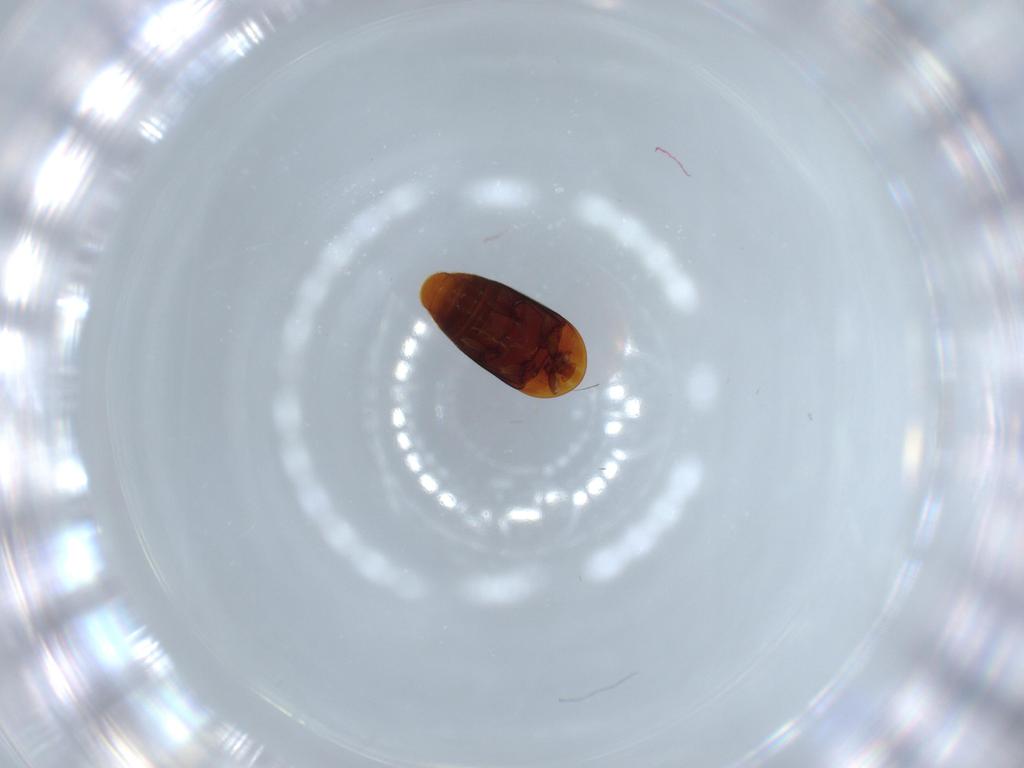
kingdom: Animalia
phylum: Arthropoda
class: Insecta
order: Coleoptera
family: Corylophidae
